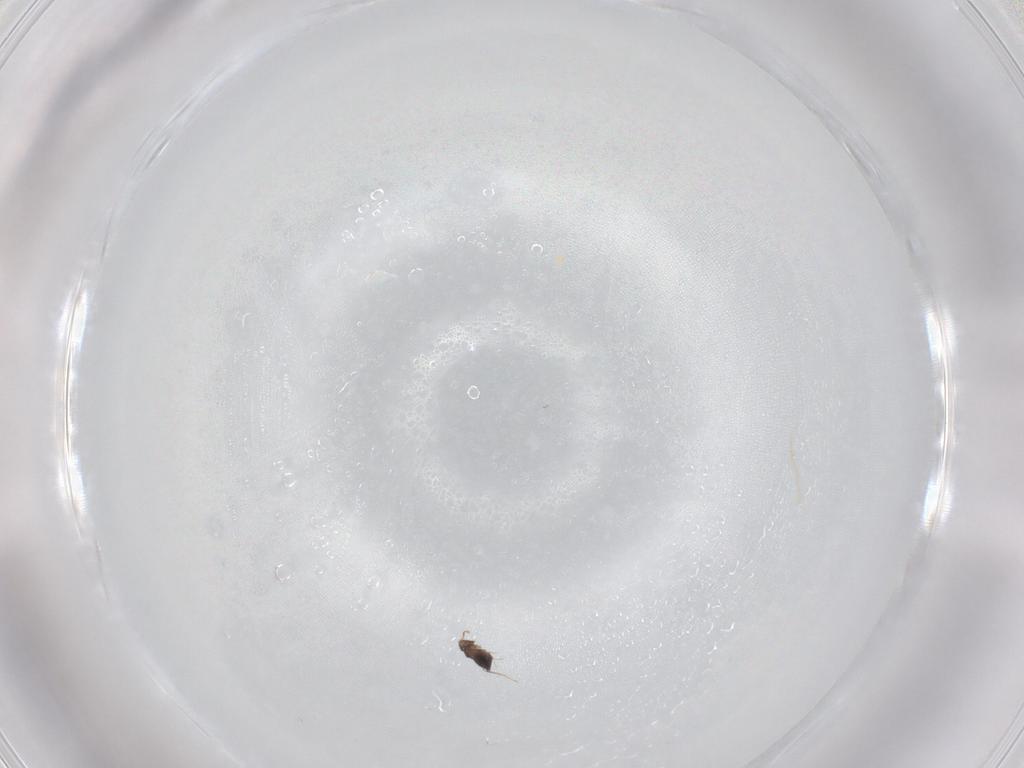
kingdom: Animalia
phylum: Arthropoda
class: Insecta
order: Hymenoptera
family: Mymaridae
